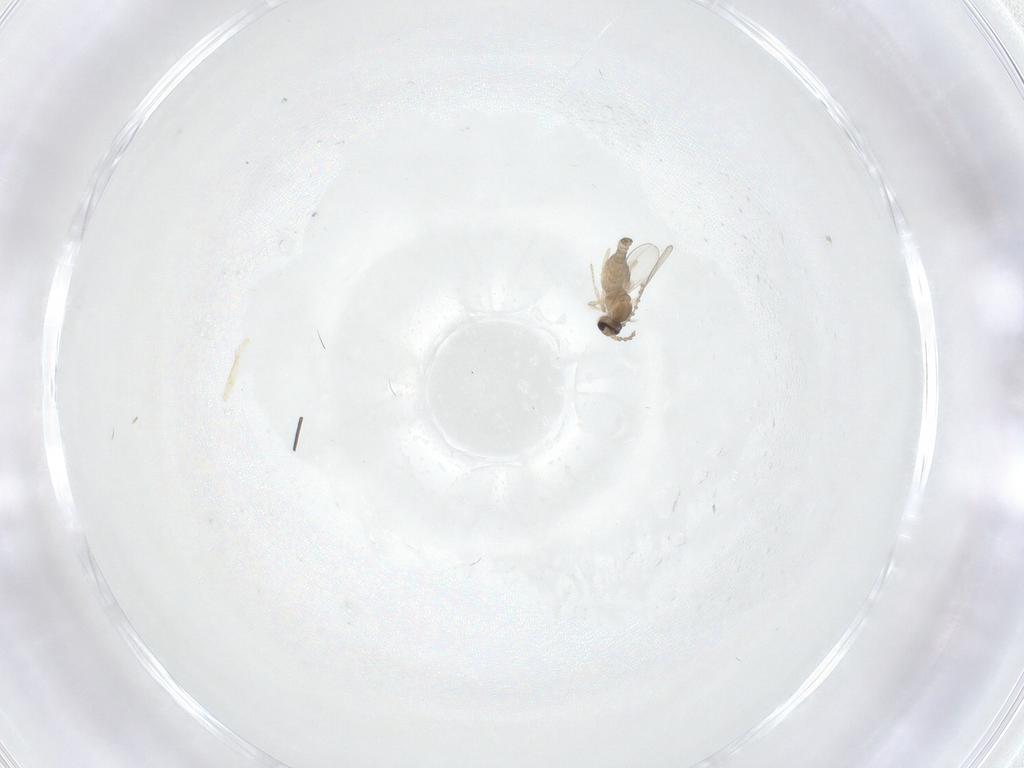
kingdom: Animalia
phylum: Arthropoda
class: Insecta
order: Diptera
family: Cecidomyiidae
